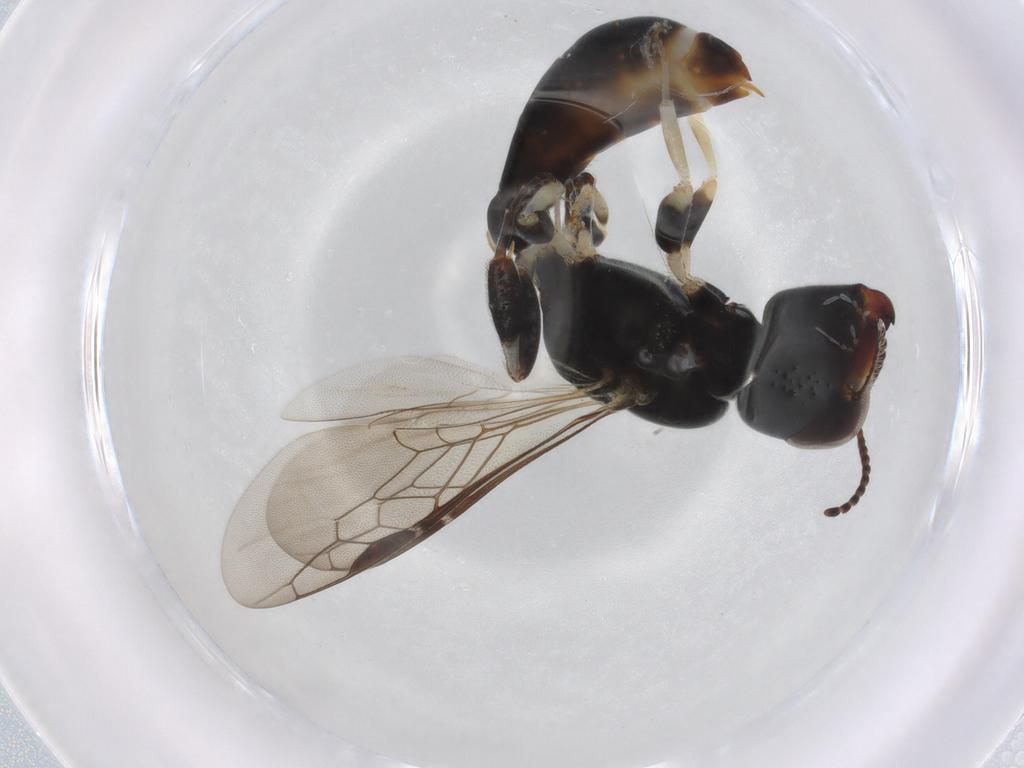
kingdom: Animalia
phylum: Arthropoda
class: Insecta
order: Hymenoptera
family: Crabronidae
